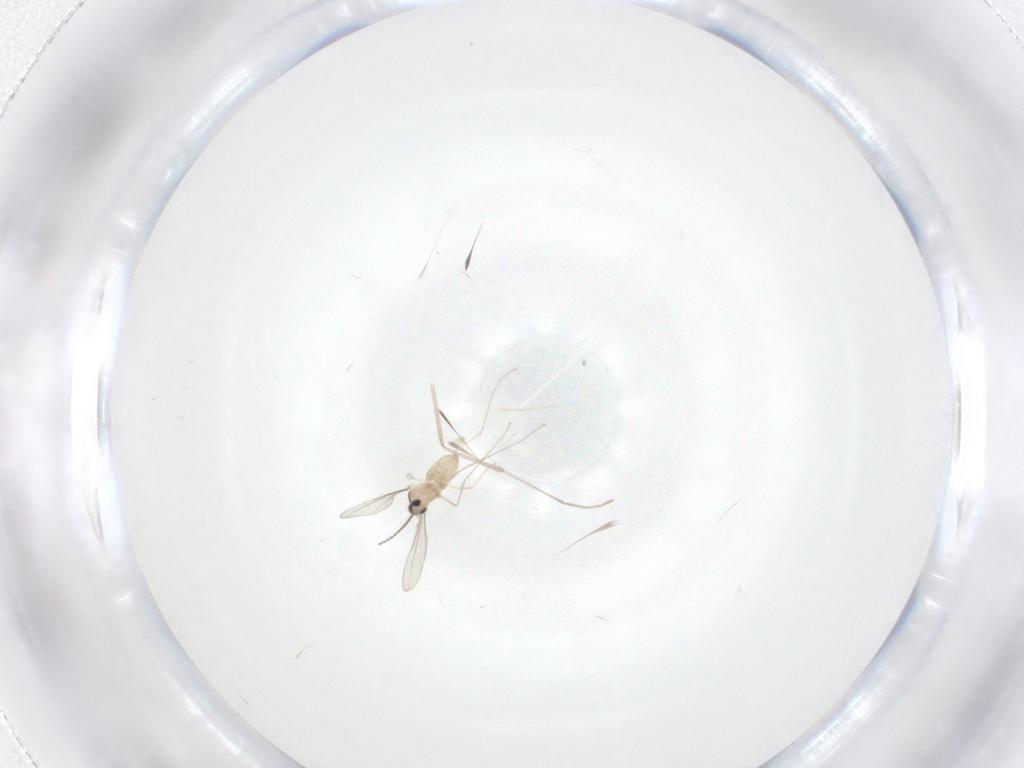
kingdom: Animalia
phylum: Arthropoda
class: Insecta
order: Diptera
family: Cecidomyiidae
